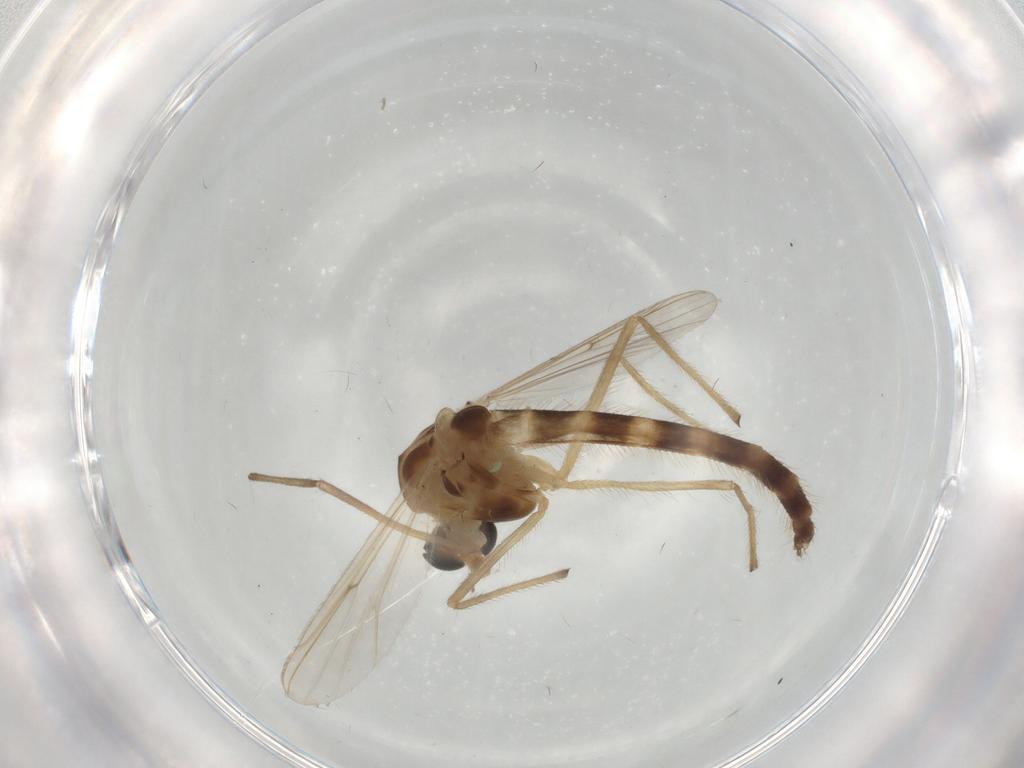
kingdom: Animalia
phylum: Arthropoda
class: Insecta
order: Diptera
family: Chironomidae
